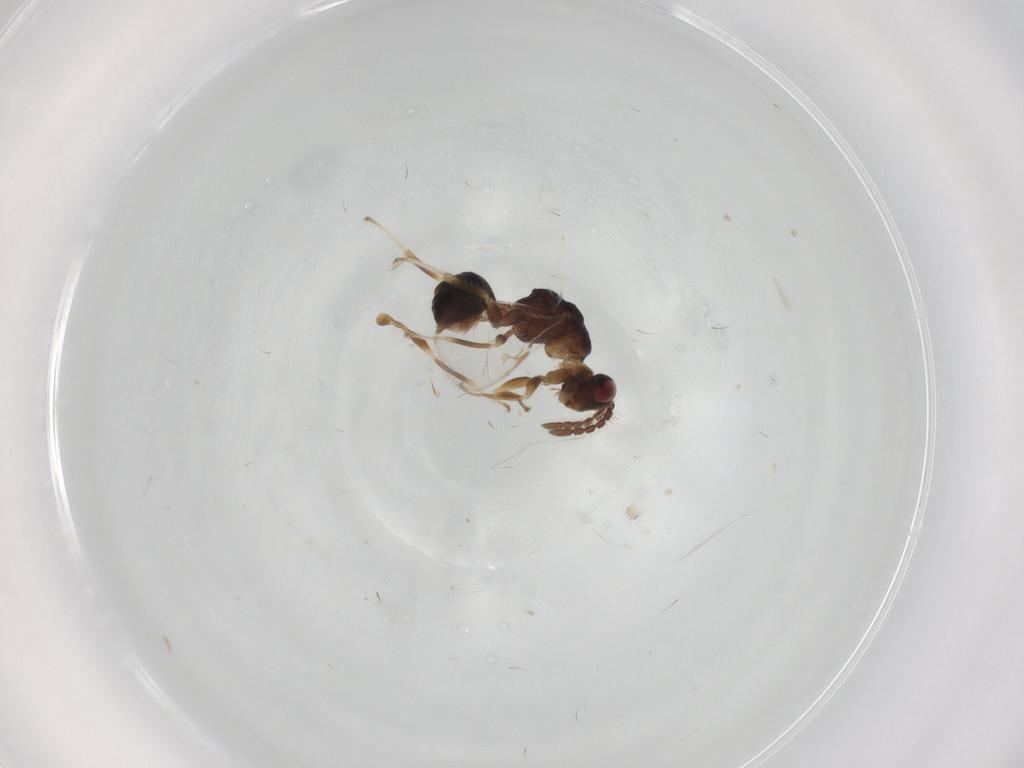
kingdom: Animalia
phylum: Arthropoda
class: Insecta
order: Hymenoptera
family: Eurytomidae
